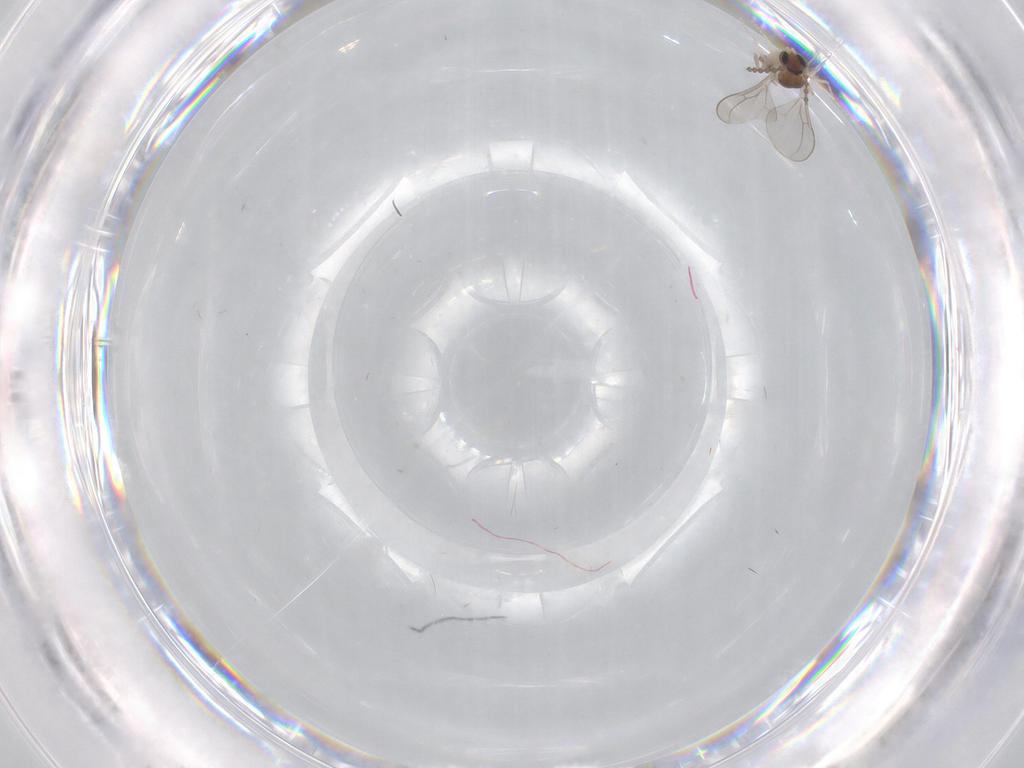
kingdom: Animalia
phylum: Arthropoda
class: Insecta
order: Diptera
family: Cecidomyiidae
